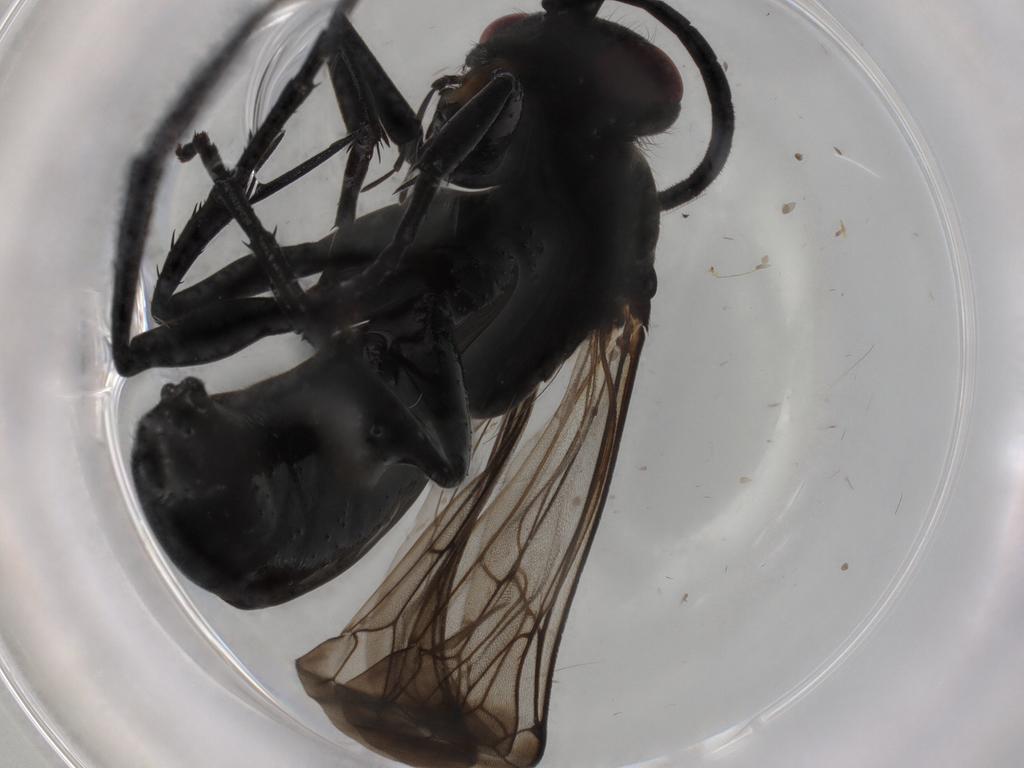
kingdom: Animalia
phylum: Arthropoda
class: Insecta
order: Hymenoptera
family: Pompilidae
